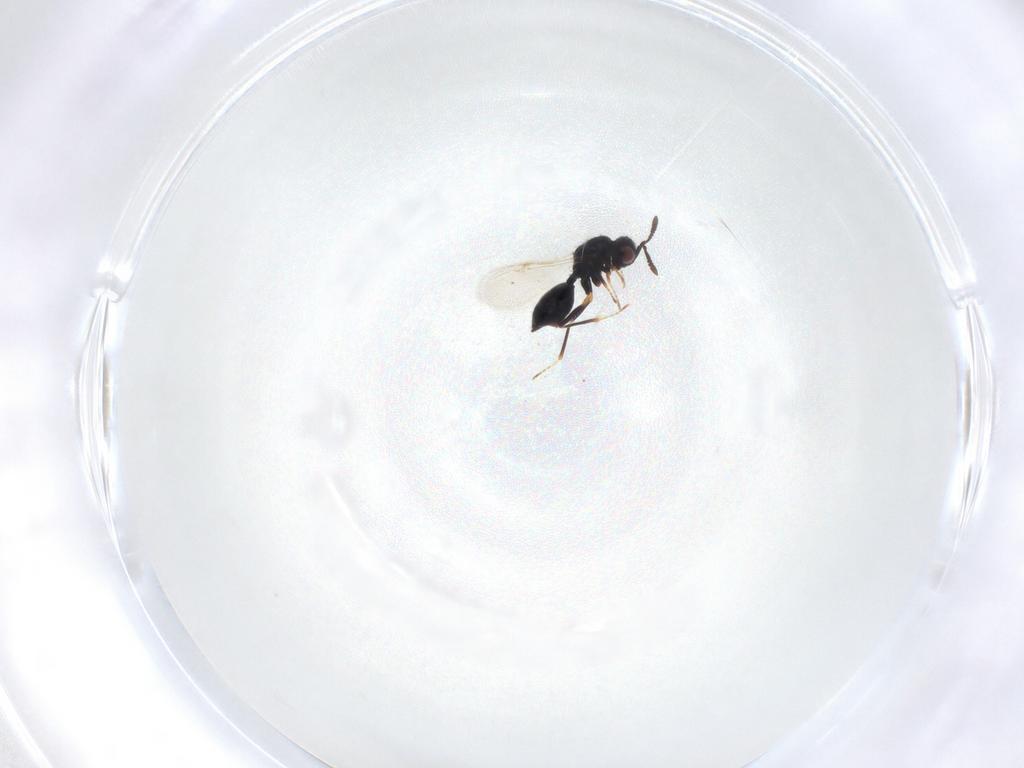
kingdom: Animalia
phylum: Arthropoda
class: Insecta
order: Hymenoptera
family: Chalcidoidea_incertae_sedis
